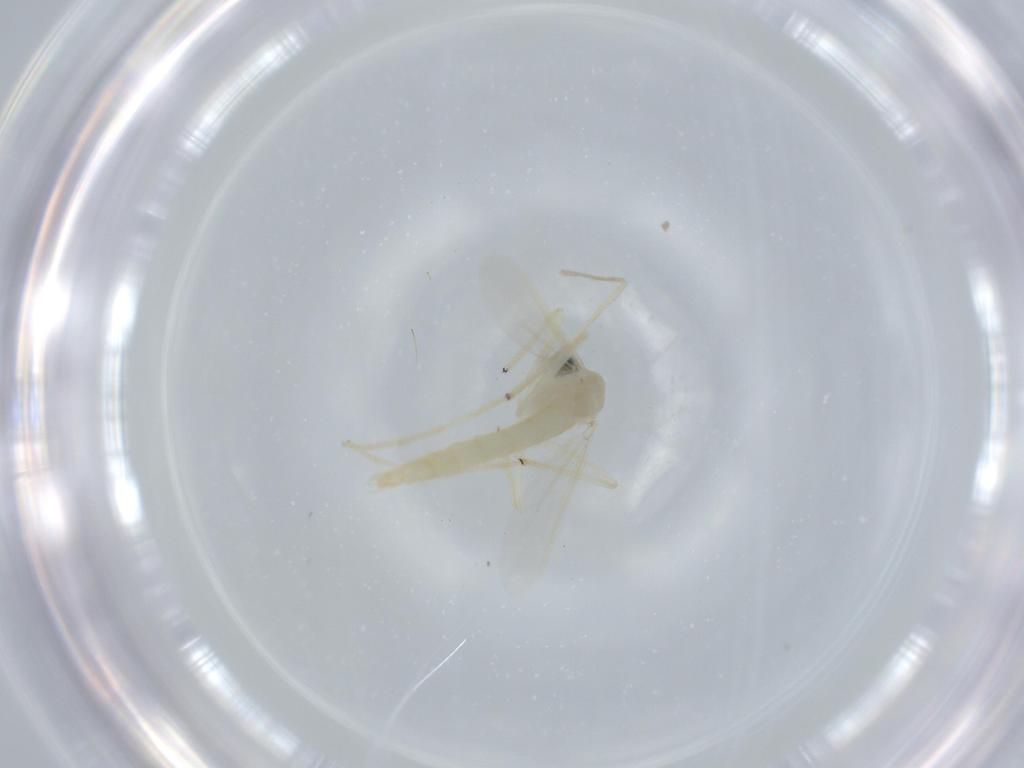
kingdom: Animalia
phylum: Arthropoda
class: Insecta
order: Diptera
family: Cecidomyiidae
